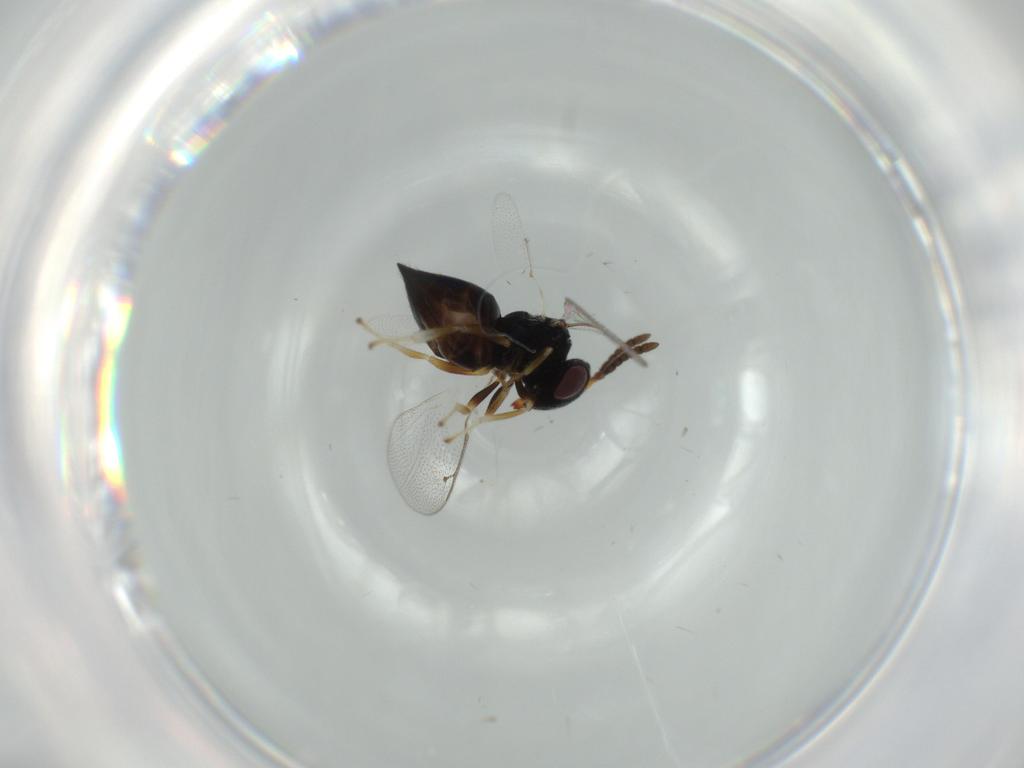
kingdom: Animalia
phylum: Arthropoda
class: Insecta
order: Hymenoptera
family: Pteromalidae
